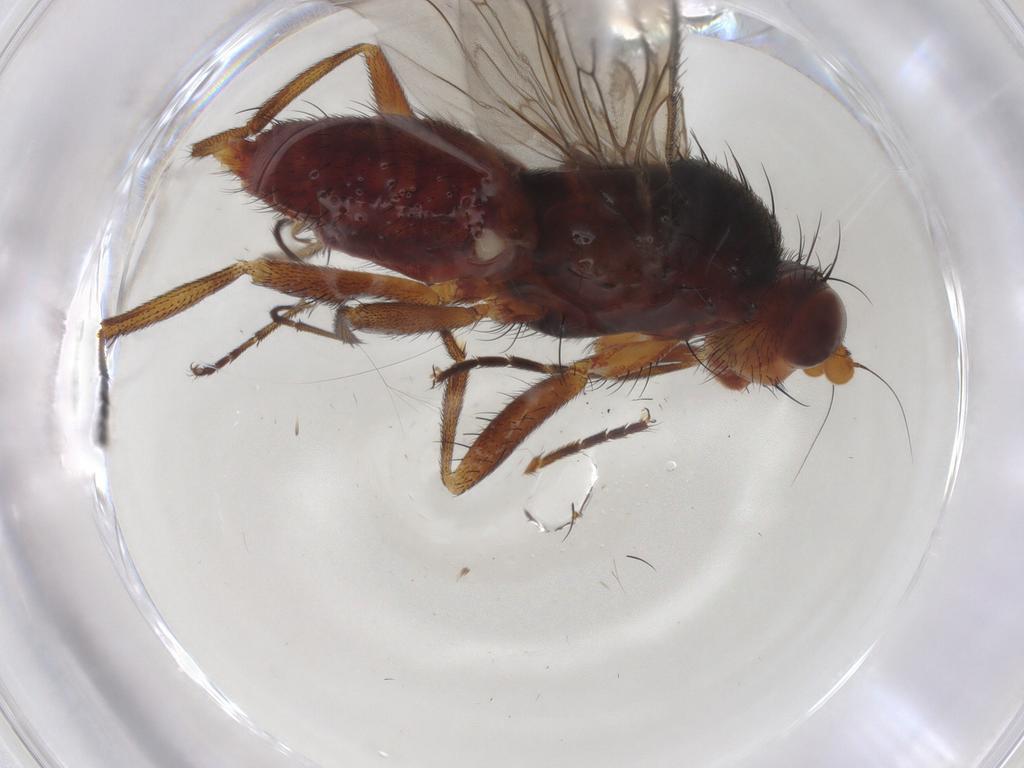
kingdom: Animalia
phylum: Arthropoda
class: Insecta
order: Diptera
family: Heleomyzidae
